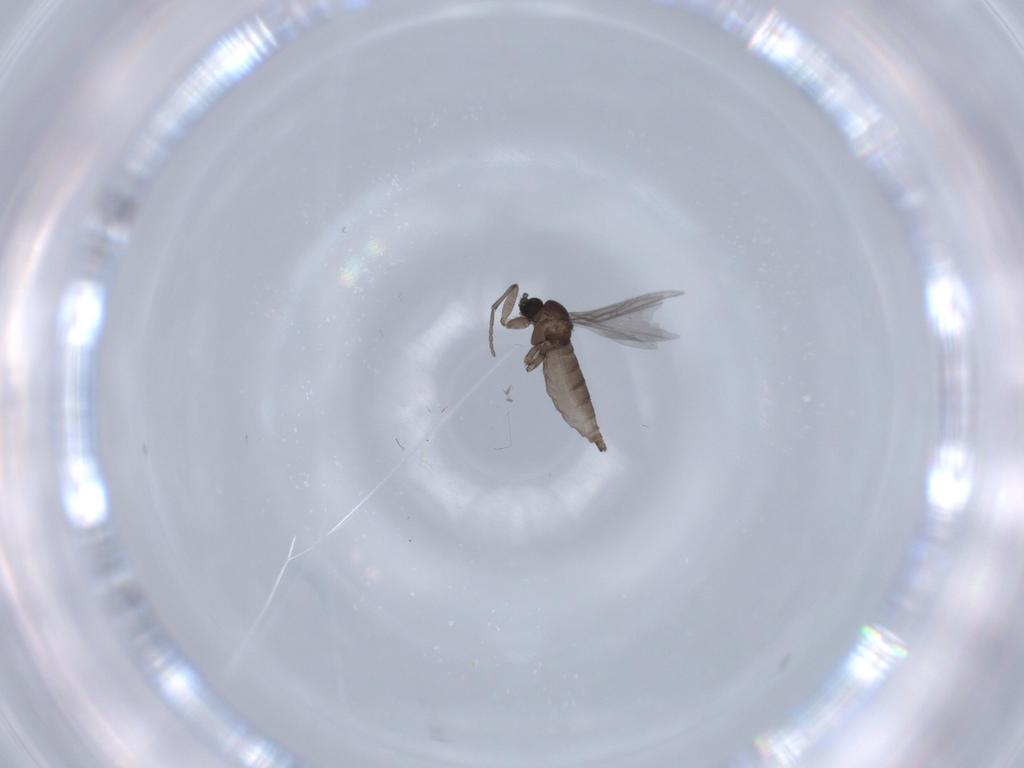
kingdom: Animalia
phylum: Arthropoda
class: Insecta
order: Diptera
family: Sciaridae
